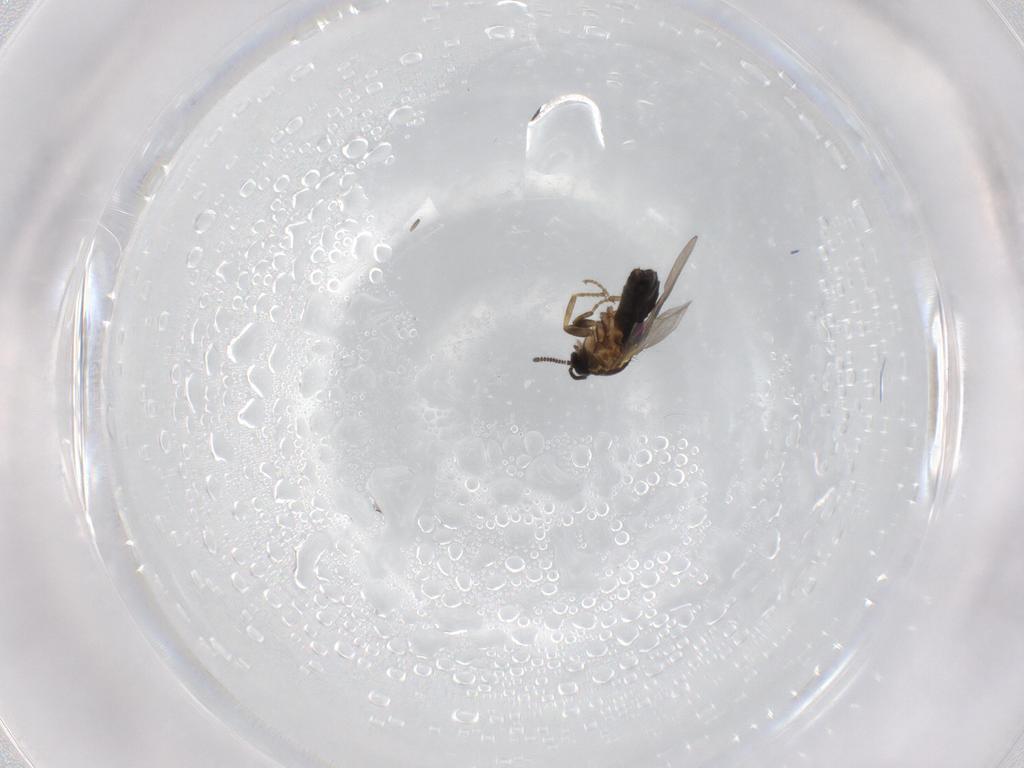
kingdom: Animalia
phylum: Arthropoda
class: Insecta
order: Diptera
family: Scatopsidae
